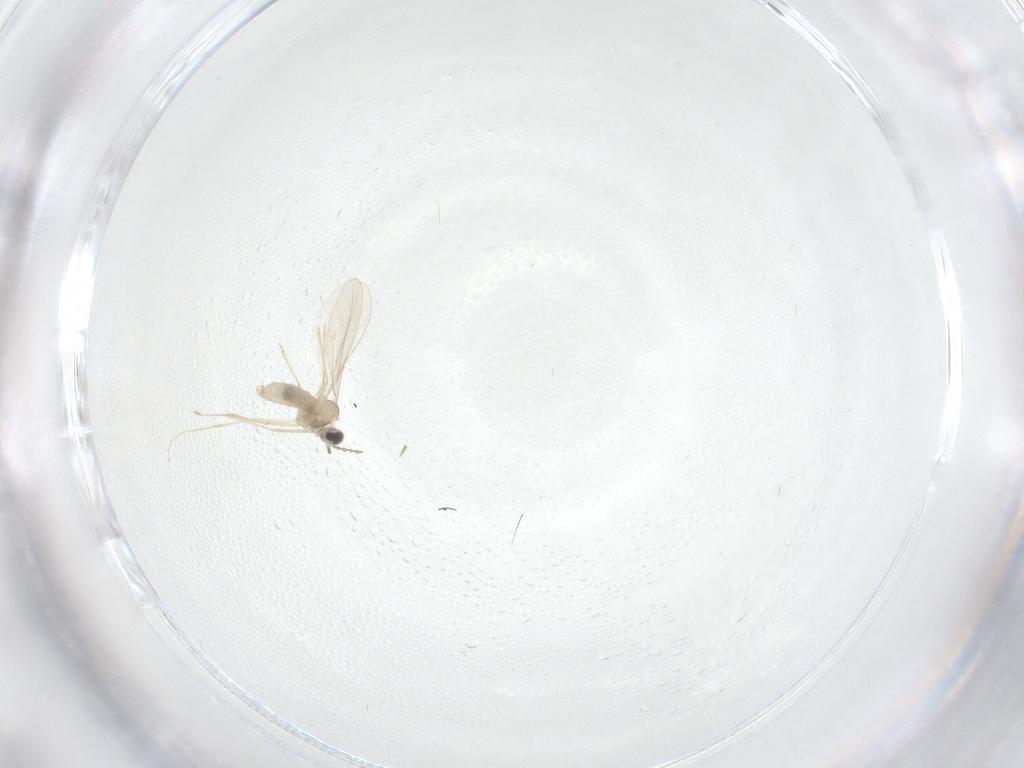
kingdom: Animalia
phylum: Arthropoda
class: Insecta
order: Diptera
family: Cecidomyiidae
